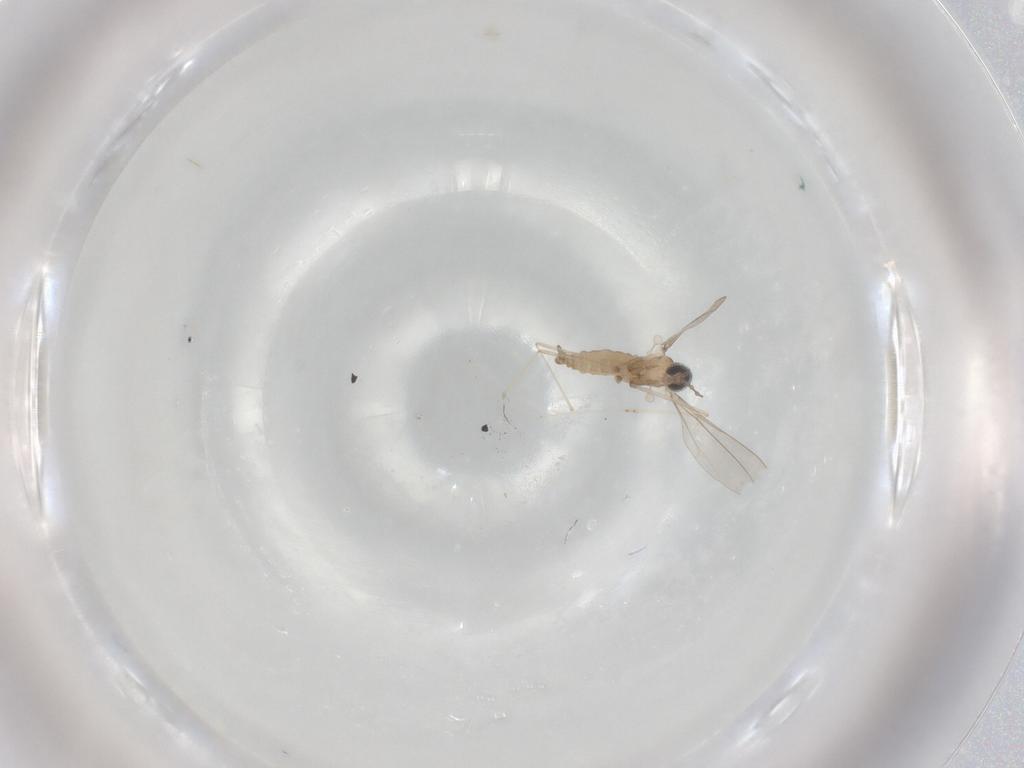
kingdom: Animalia
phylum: Arthropoda
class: Insecta
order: Diptera
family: Cecidomyiidae
